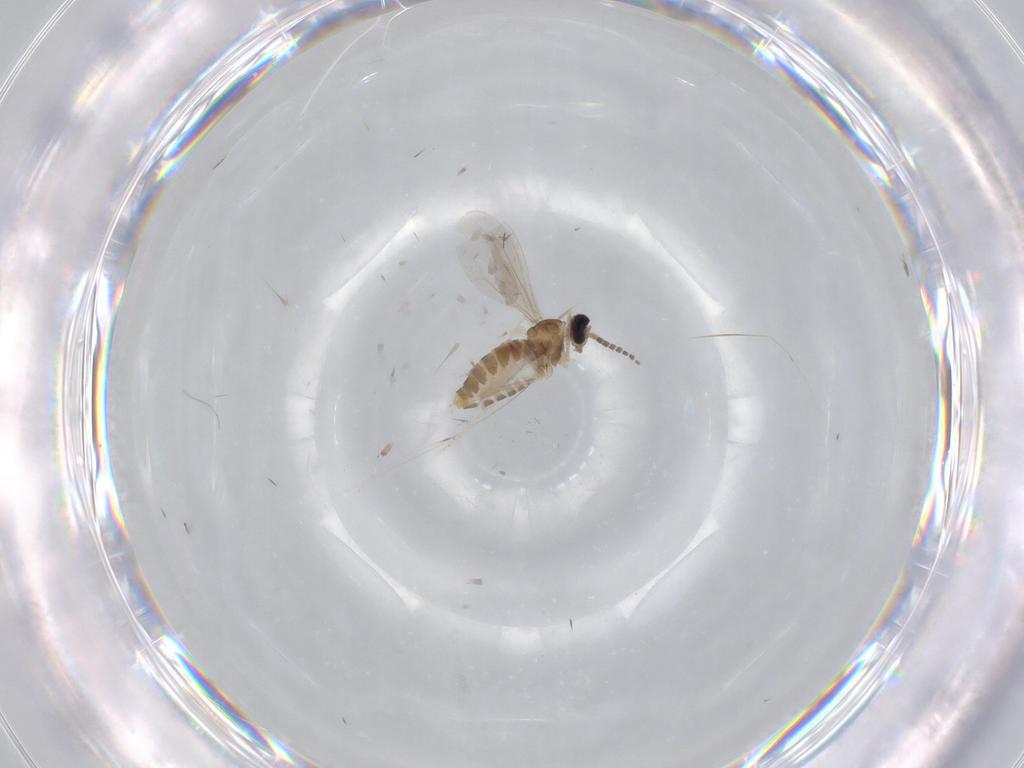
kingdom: Animalia
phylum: Arthropoda
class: Insecta
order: Diptera
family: Cecidomyiidae
